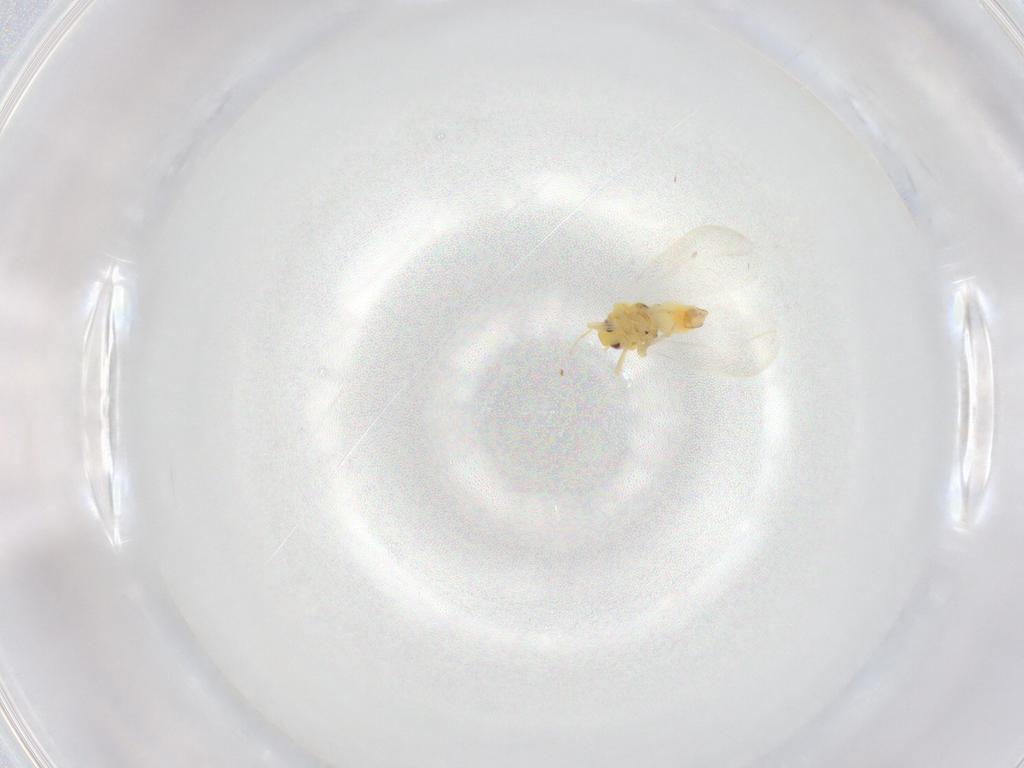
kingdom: Animalia
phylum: Arthropoda
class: Insecta
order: Hemiptera
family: Aleyrodidae
